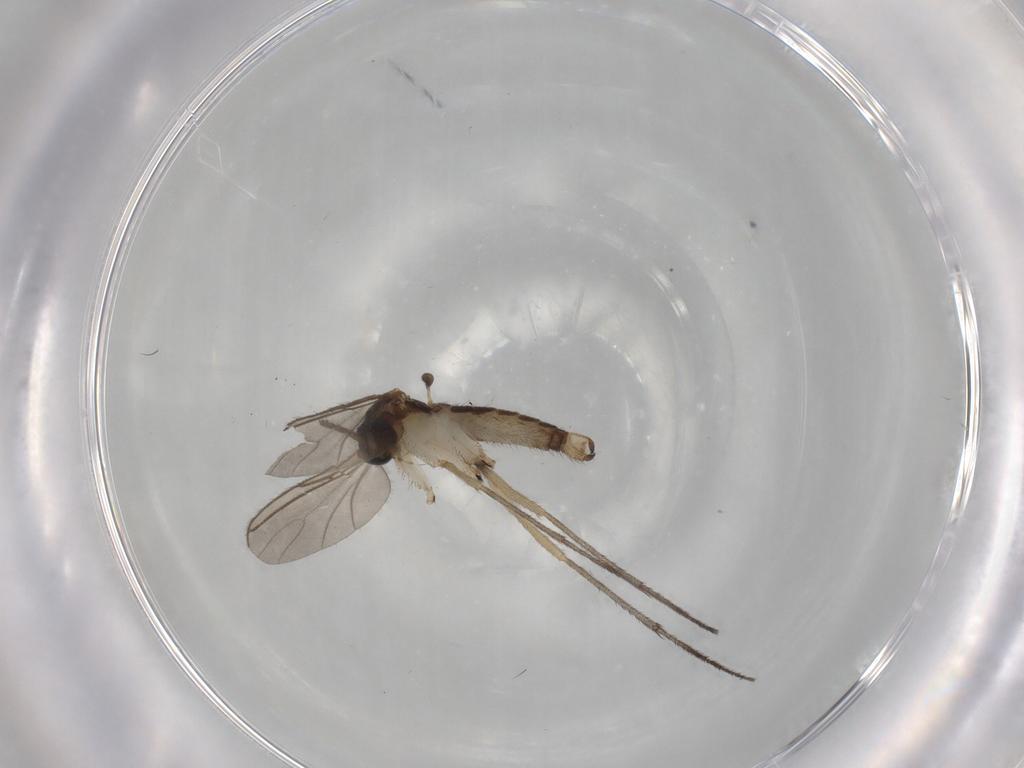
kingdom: Animalia
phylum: Arthropoda
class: Insecta
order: Diptera
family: Sciaridae
